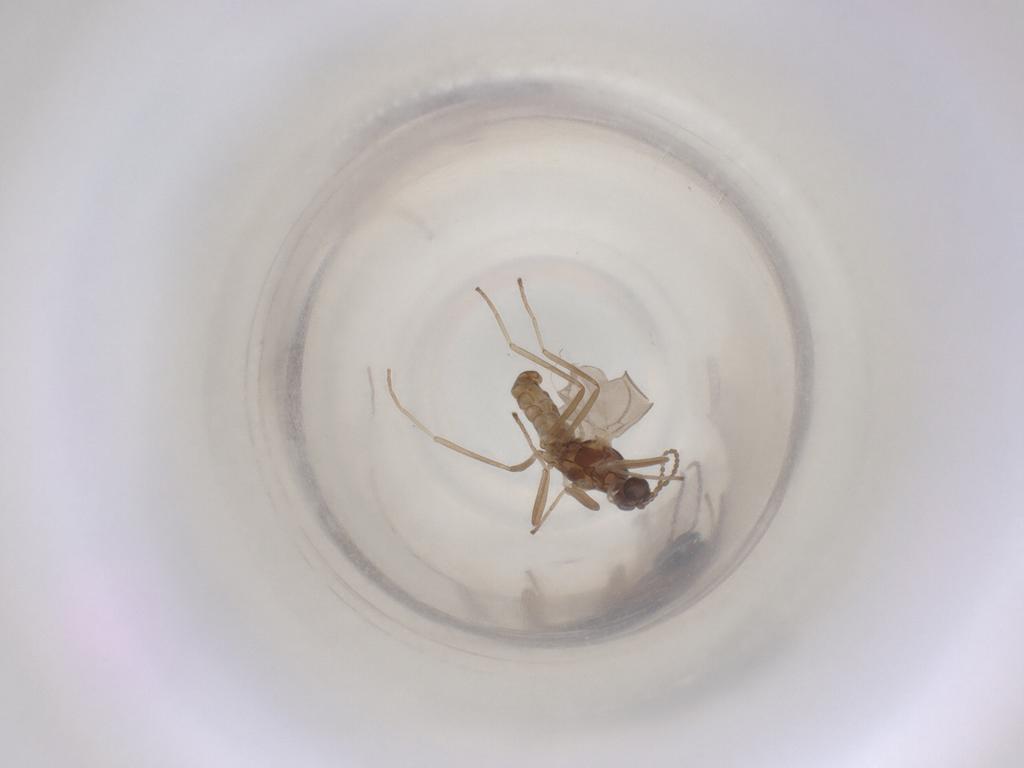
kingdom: Animalia
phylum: Arthropoda
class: Insecta
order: Diptera
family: Cecidomyiidae
